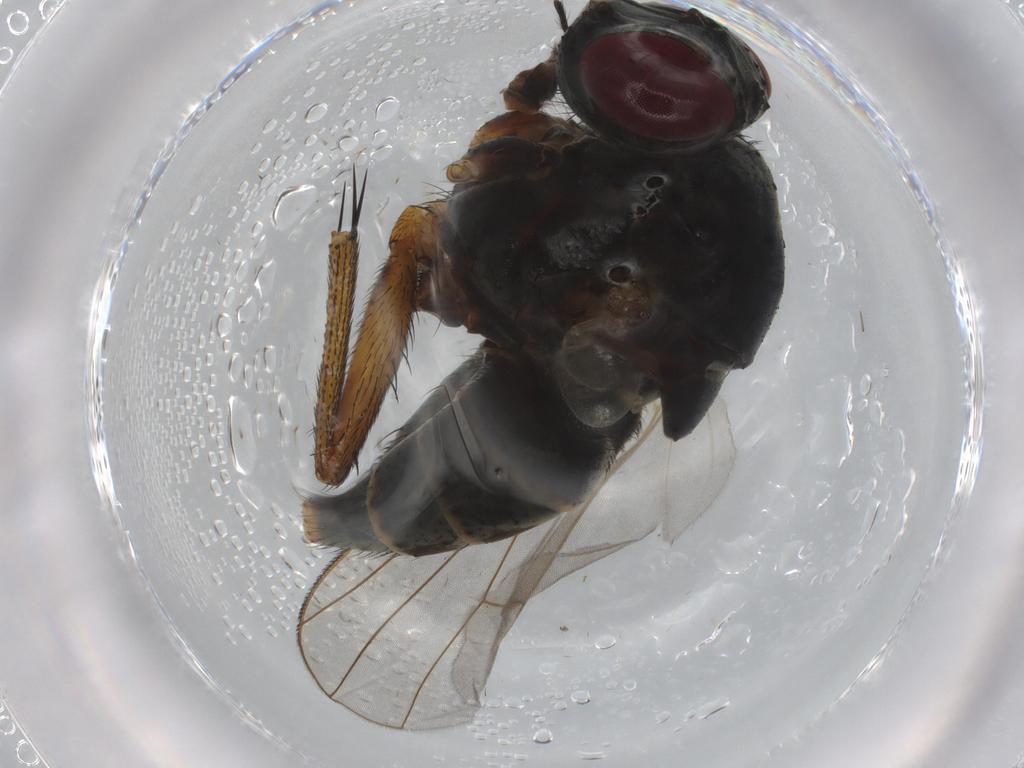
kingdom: Animalia
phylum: Arthropoda
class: Insecta
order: Diptera
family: Muscidae
